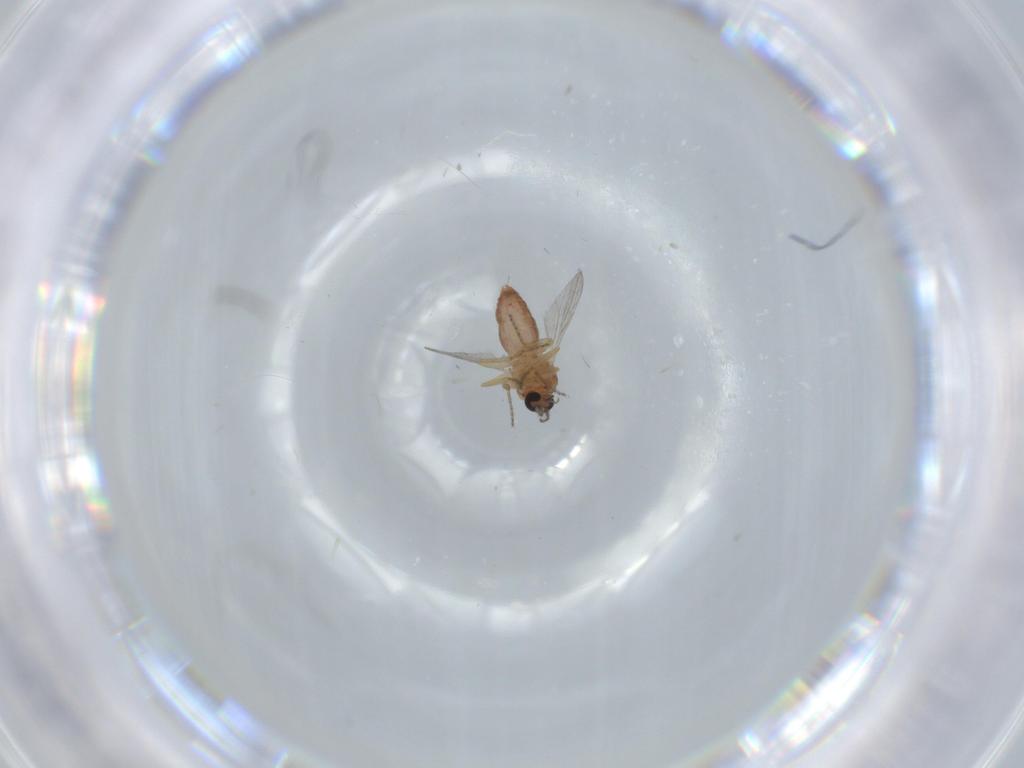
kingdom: Animalia
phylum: Arthropoda
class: Insecta
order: Diptera
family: Ceratopogonidae
